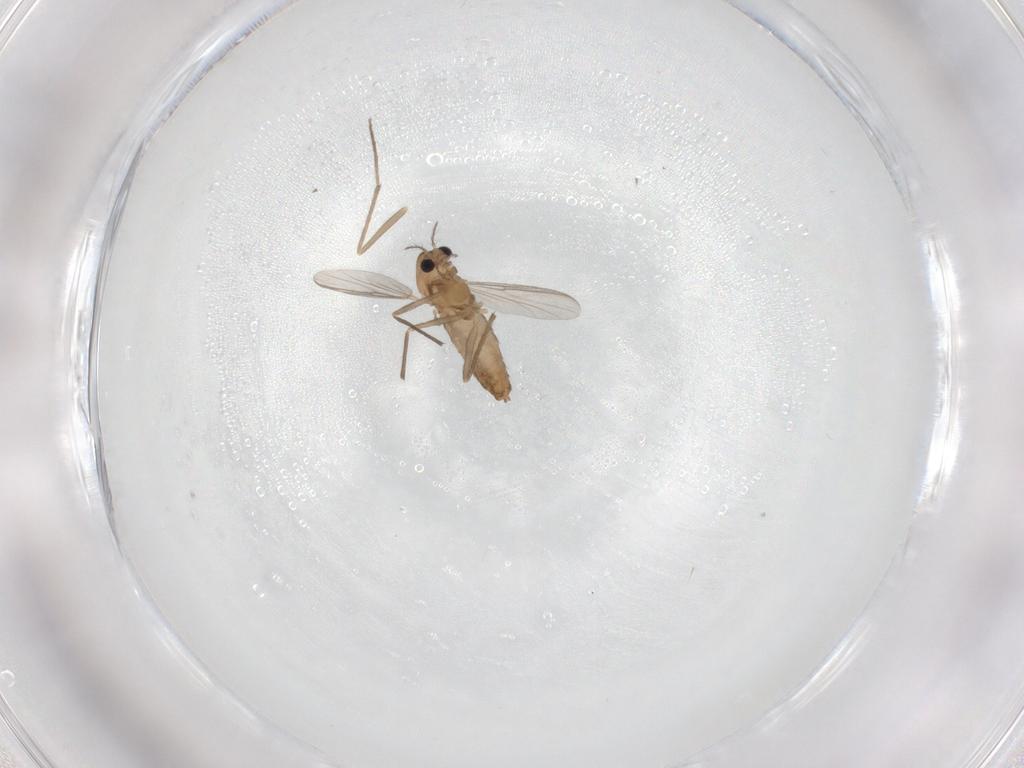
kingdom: Animalia
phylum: Arthropoda
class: Insecta
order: Diptera
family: Chironomidae
